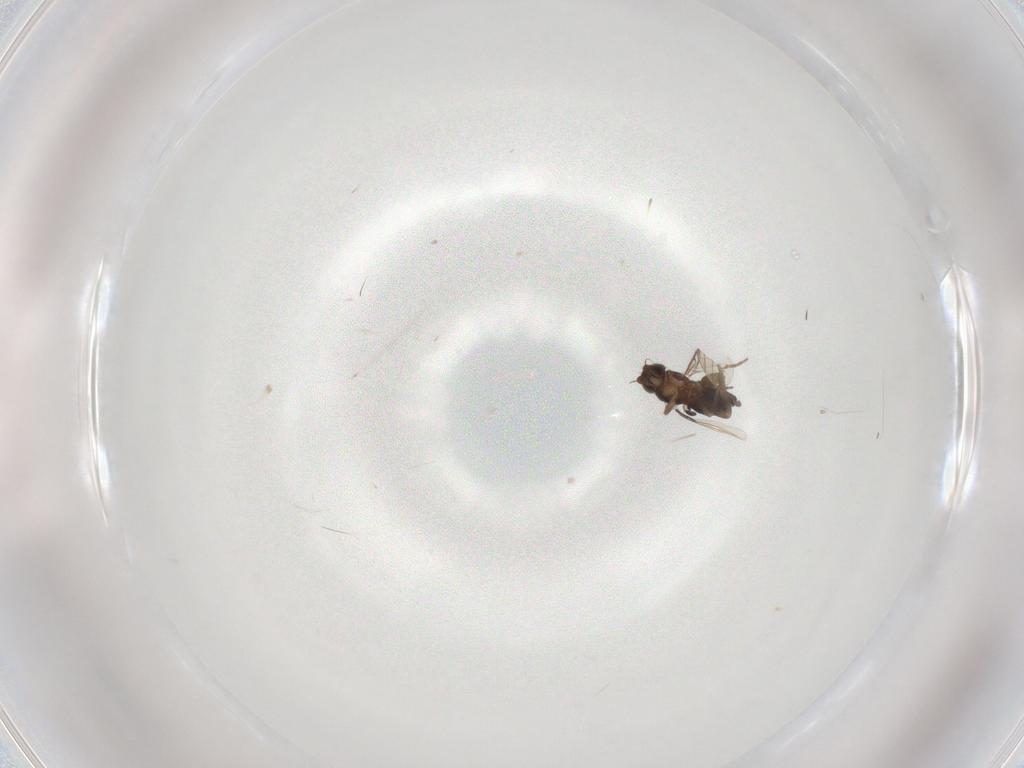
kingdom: Animalia
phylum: Arthropoda
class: Insecta
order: Diptera
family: Phoridae
